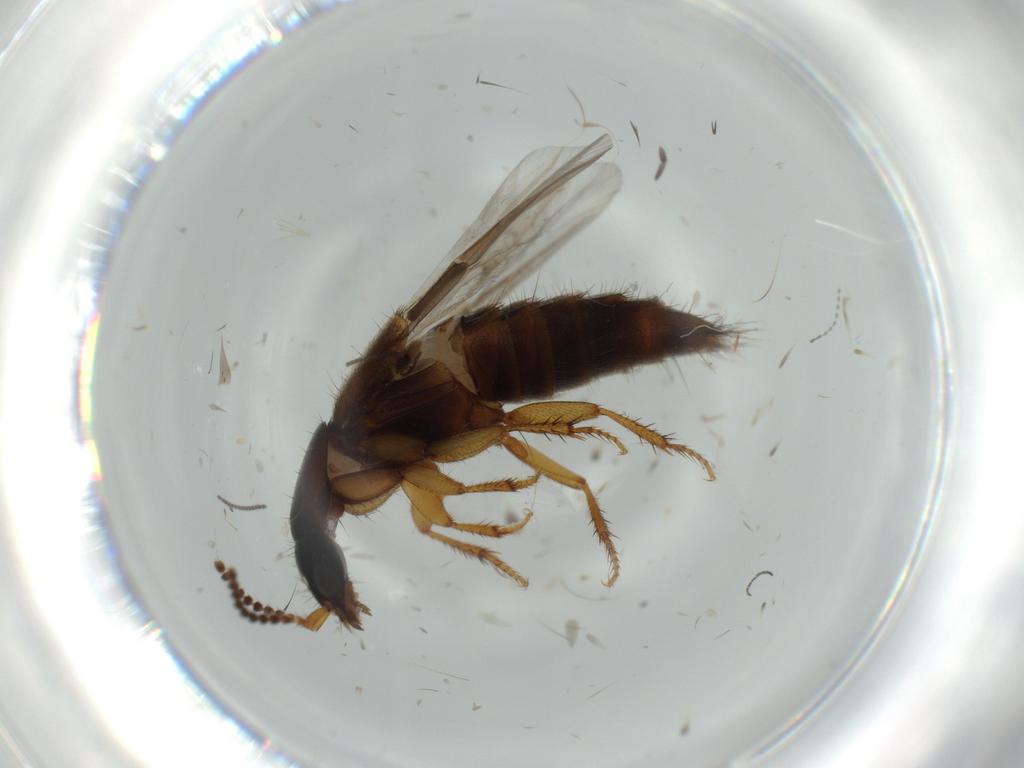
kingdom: Animalia
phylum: Arthropoda
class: Insecta
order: Coleoptera
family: Staphylinidae
